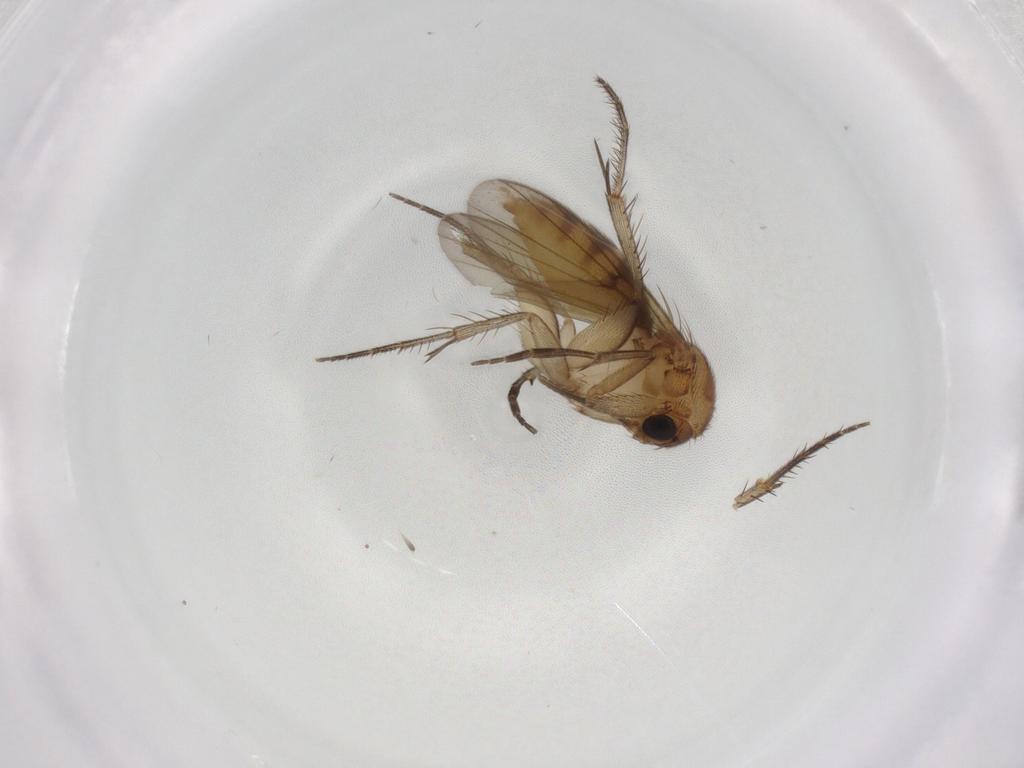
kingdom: Animalia
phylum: Arthropoda
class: Insecta
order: Diptera
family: Mycetophilidae
